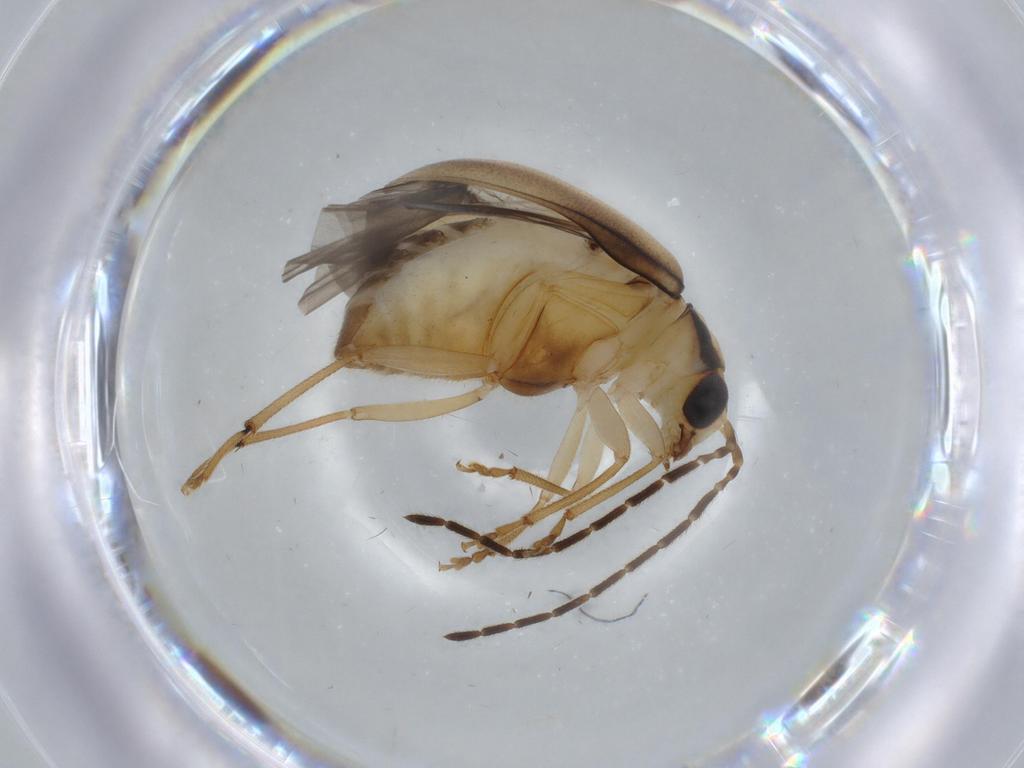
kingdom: Animalia
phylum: Arthropoda
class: Insecta
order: Coleoptera
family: Chrysomelidae
